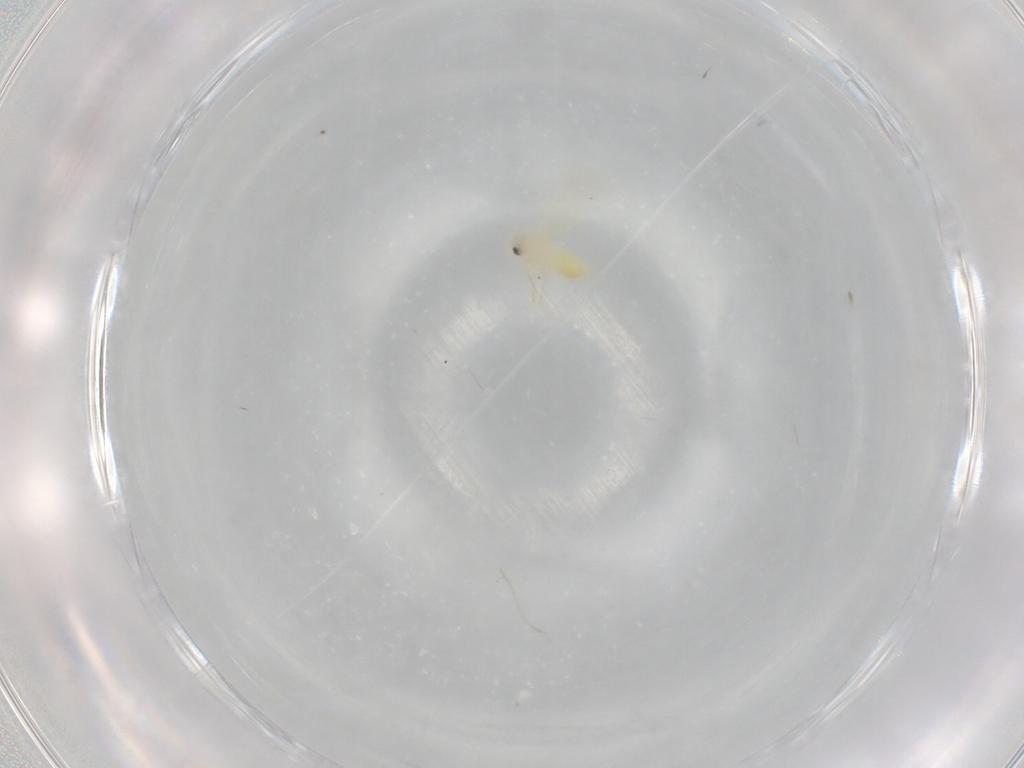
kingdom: Animalia
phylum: Arthropoda
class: Insecta
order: Hemiptera
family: Aleyrodidae
